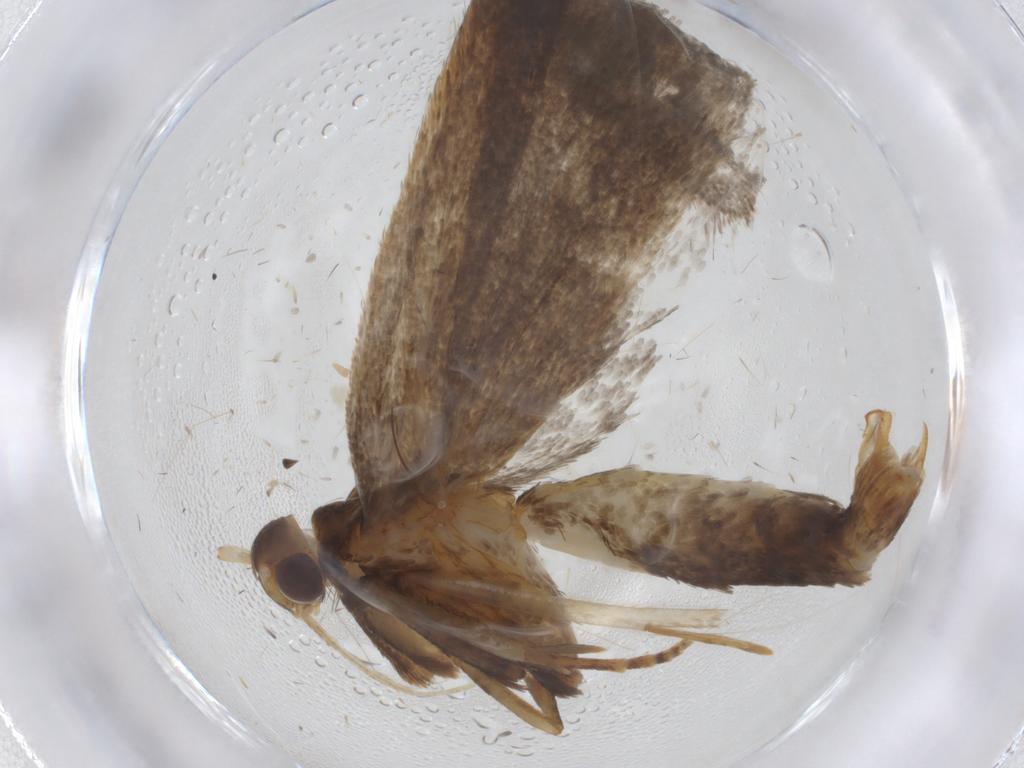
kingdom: Animalia
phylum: Arthropoda
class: Insecta
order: Lepidoptera
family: Lecithoceridae
